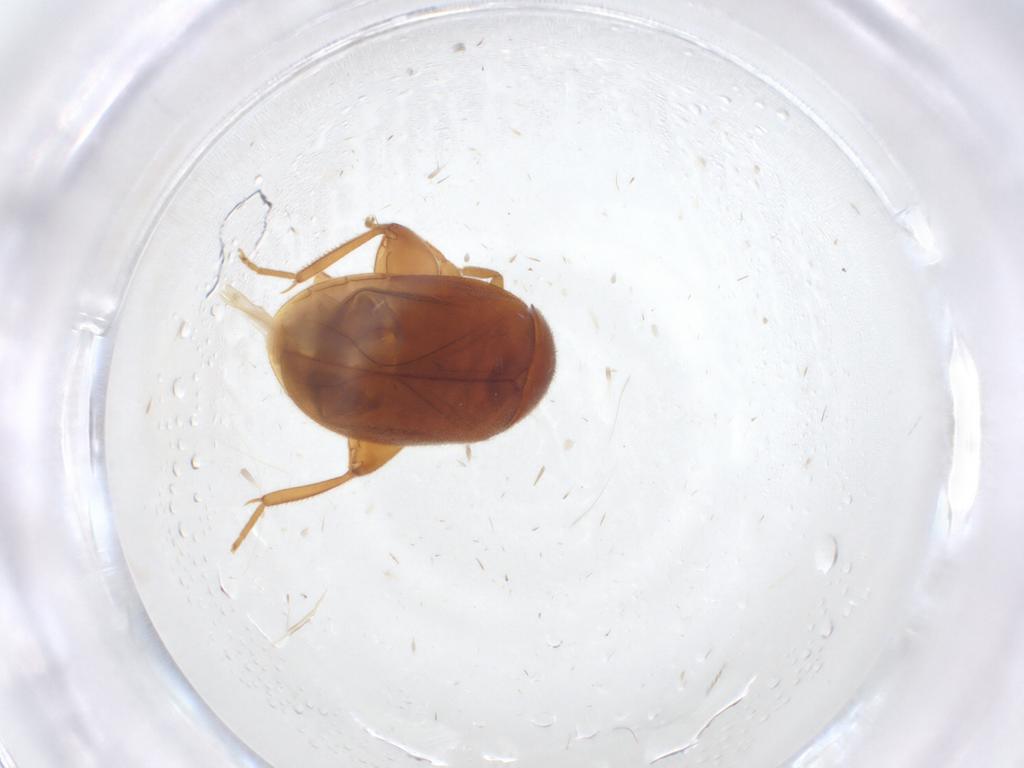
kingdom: Animalia
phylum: Arthropoda
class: Insecta
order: Coleoptera
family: Scirtidae
